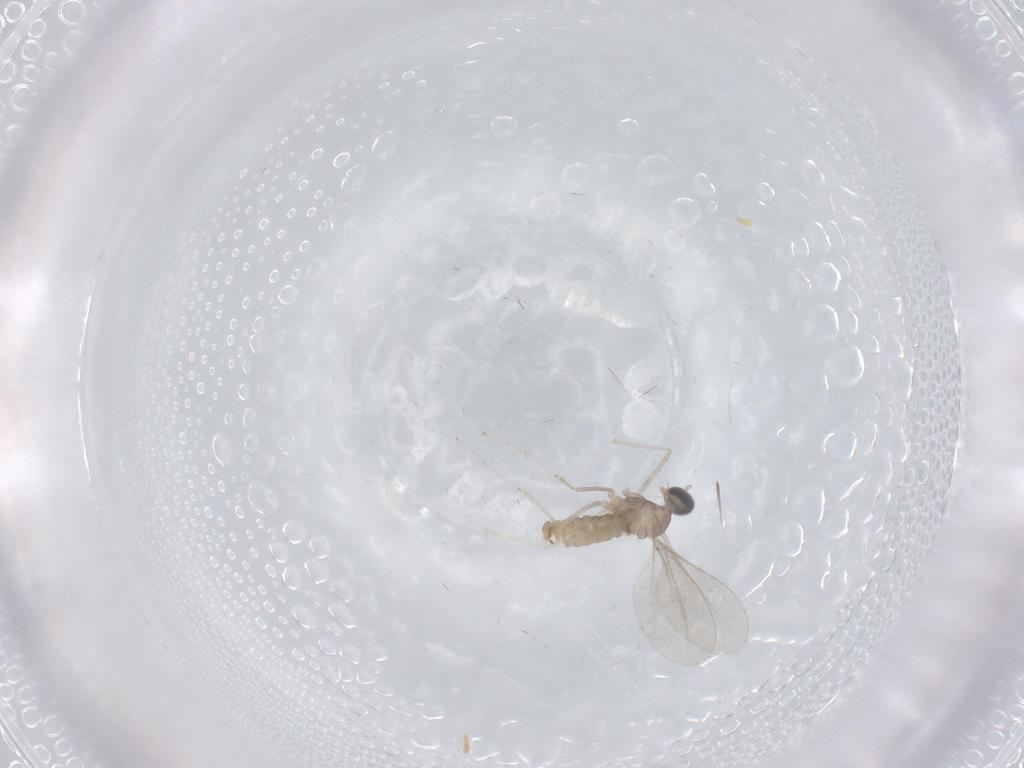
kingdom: Animalia
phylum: Arthropoda
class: Insecta
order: Diptera
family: Cecidomyiidae
